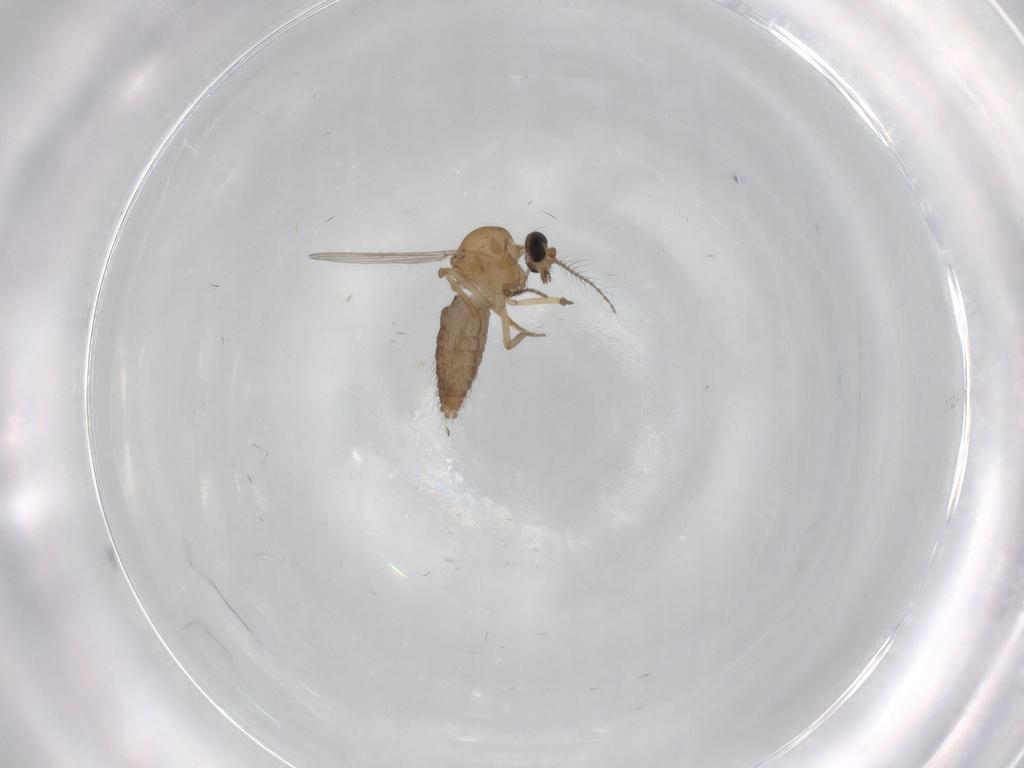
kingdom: Animalia
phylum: Arthropoda
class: Insecta
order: Diptera
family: Ceratopogonidae
